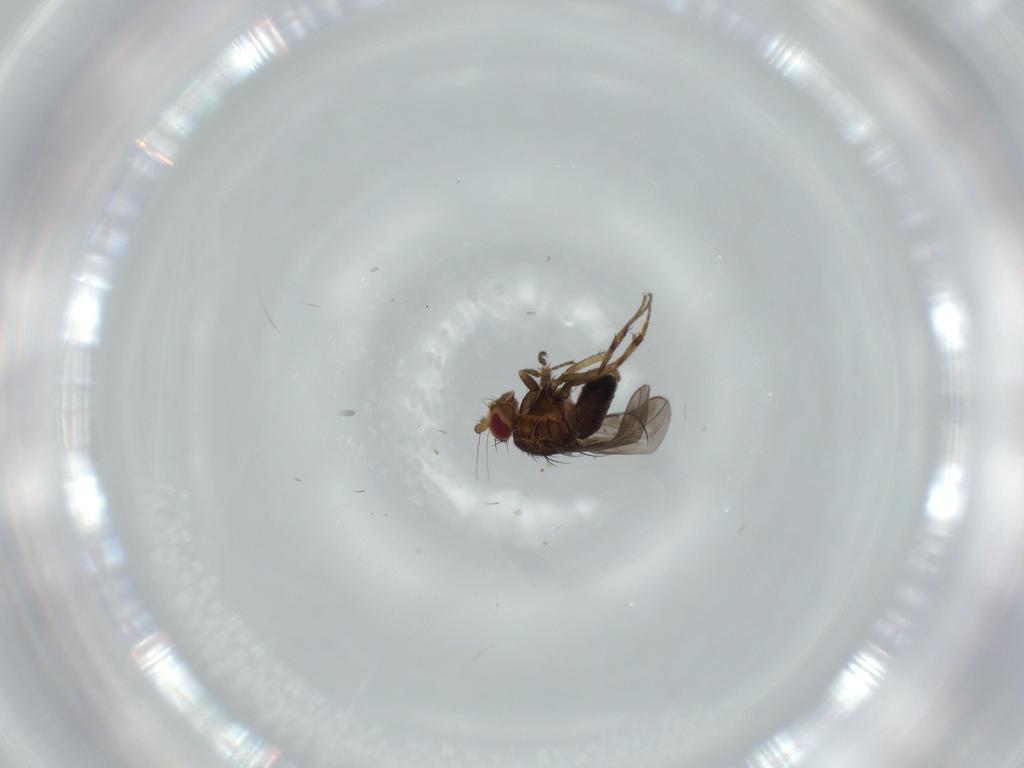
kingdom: Animalia
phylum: Arthropoda
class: Insecta
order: Diptera
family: Sphaeroceridae
